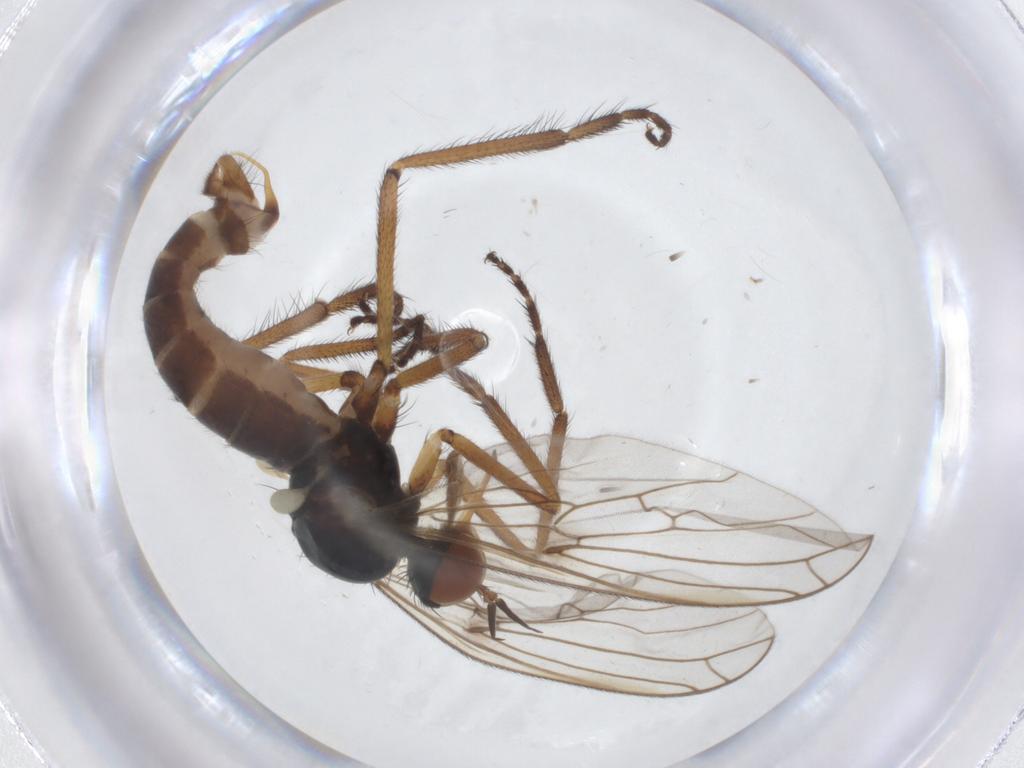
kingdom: Animalia
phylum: Arthropoda
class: Insecta
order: Diptera
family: Empididae
